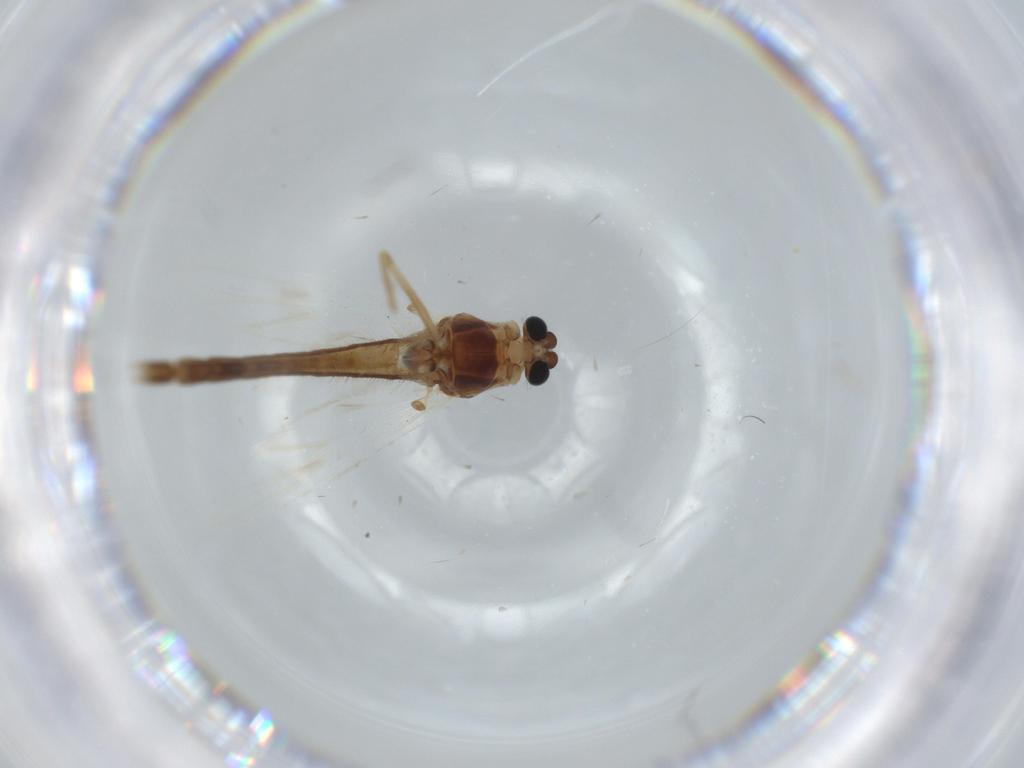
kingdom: Animalia
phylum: Arthropoda
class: Insecta
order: Diptera
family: Chironomidae
